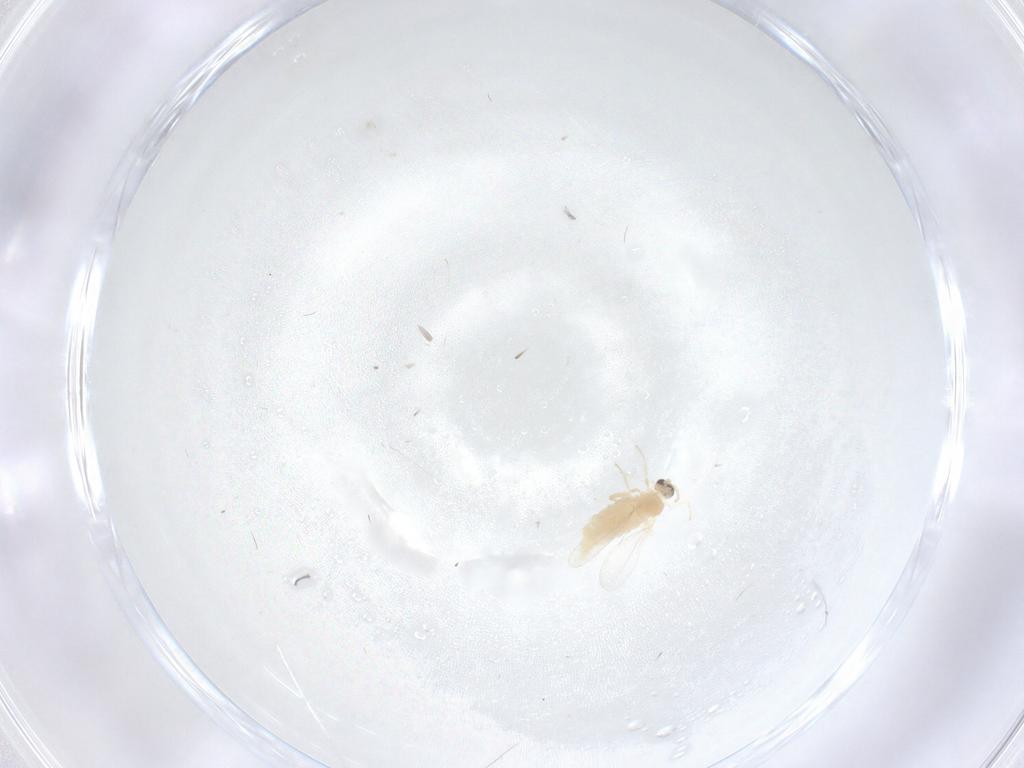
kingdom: Animalia
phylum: Arthropoda
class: Insecta
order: Diptera
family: Cecidomyiidae
